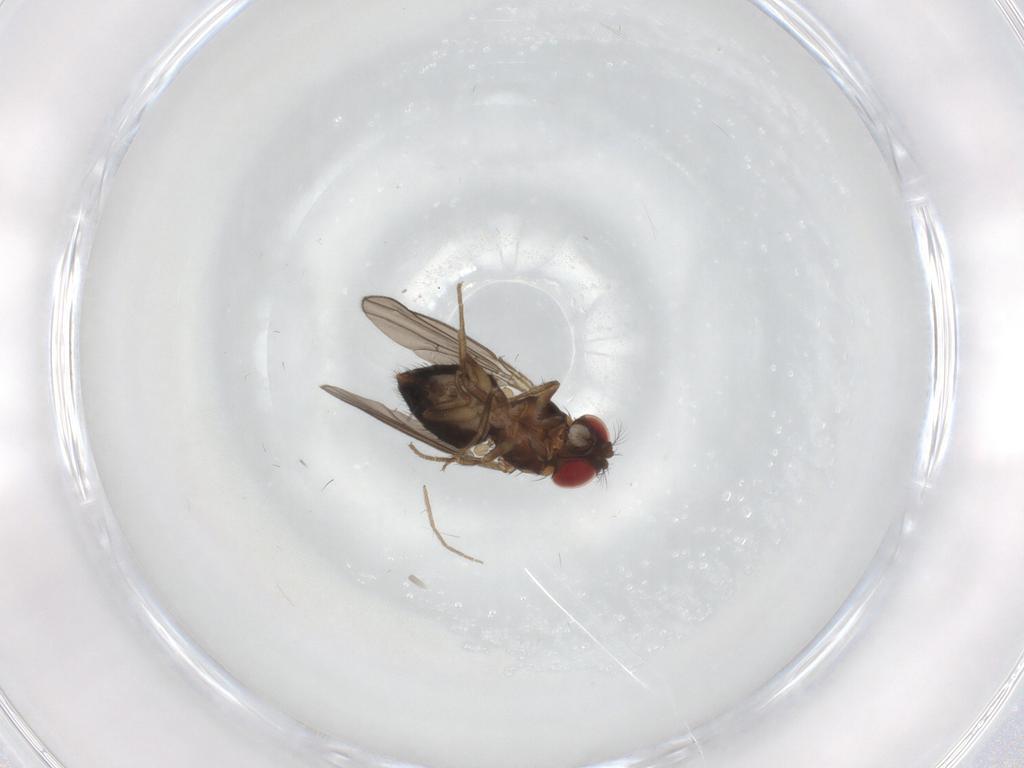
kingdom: Animalia
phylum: Arthropoda
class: Insecta
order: Diptera
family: Drosophilidae
